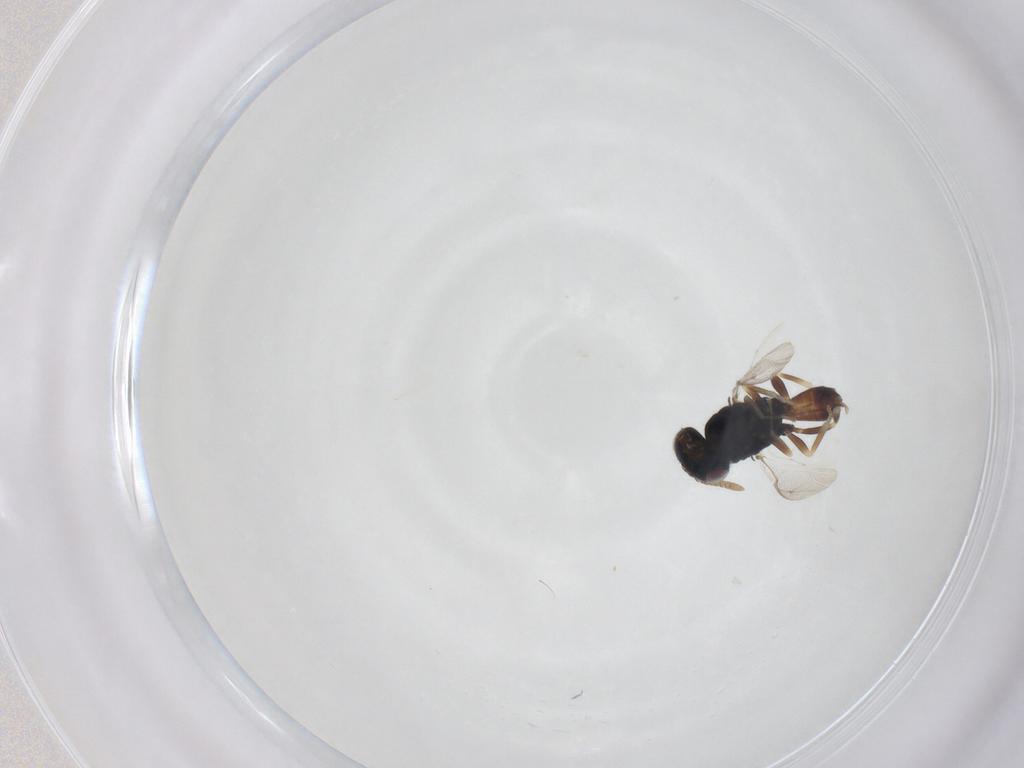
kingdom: Animalia
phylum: Arthropoda
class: Insecta
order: Hymenoptera
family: Pteromalidae
